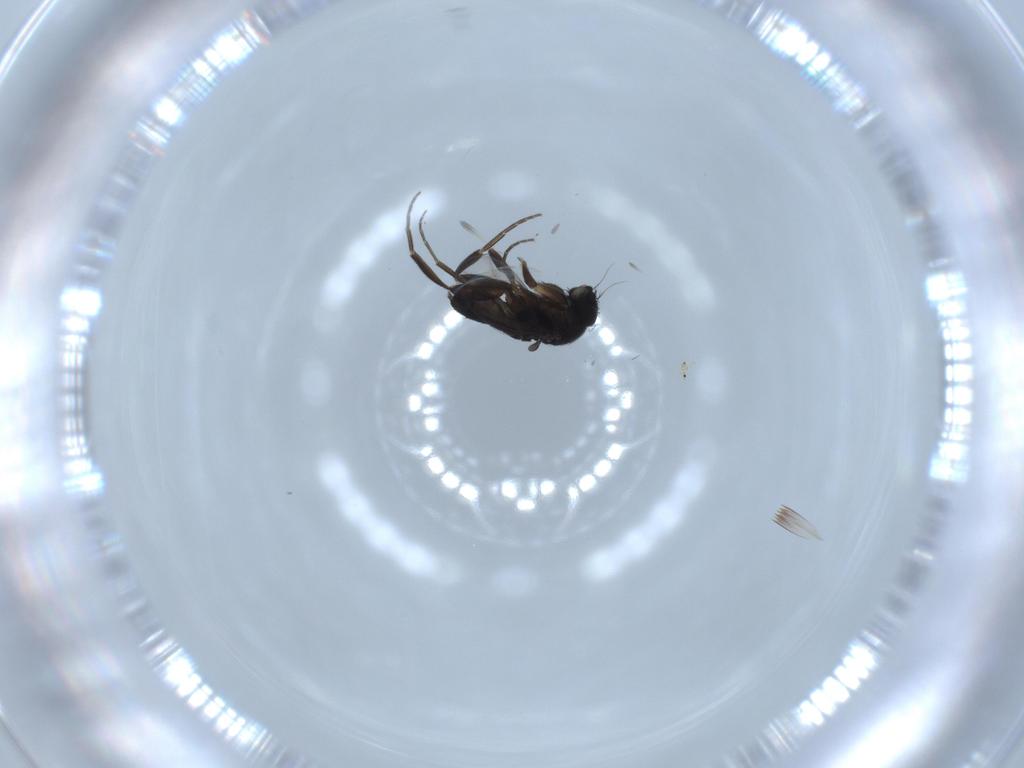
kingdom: Animalia
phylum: Arthropoda
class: Insecta
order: Diptera
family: Phoridae
